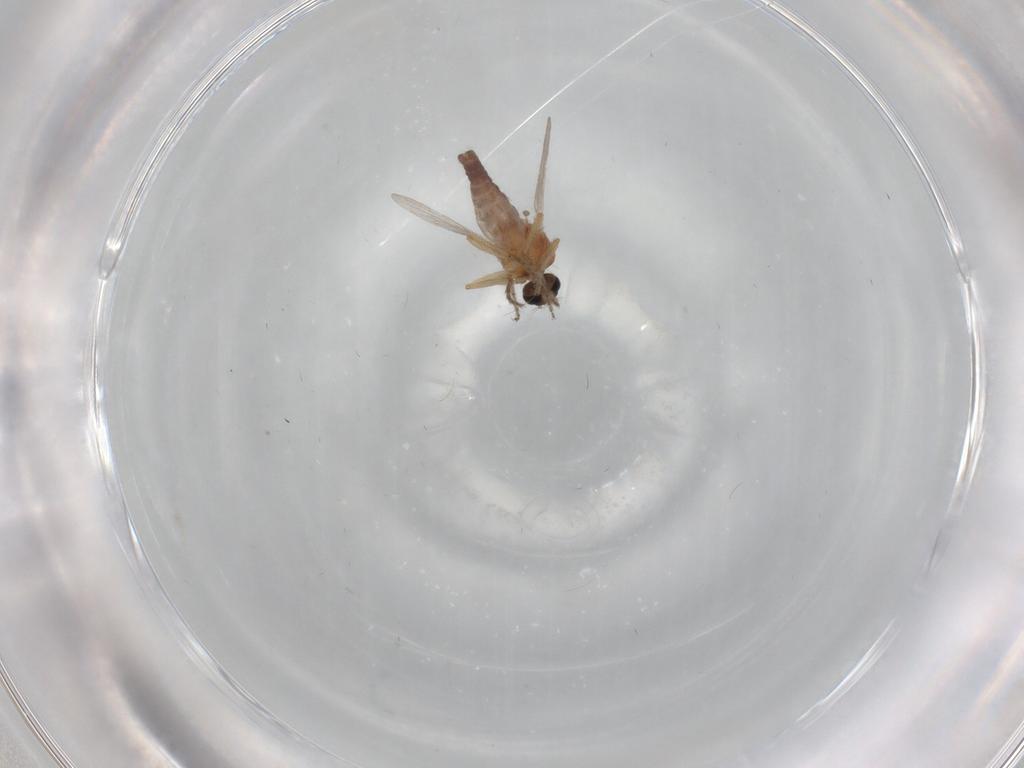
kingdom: Animalia
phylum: Arthropoda
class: Insecta
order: Diptera
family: Ceratopogonidae
